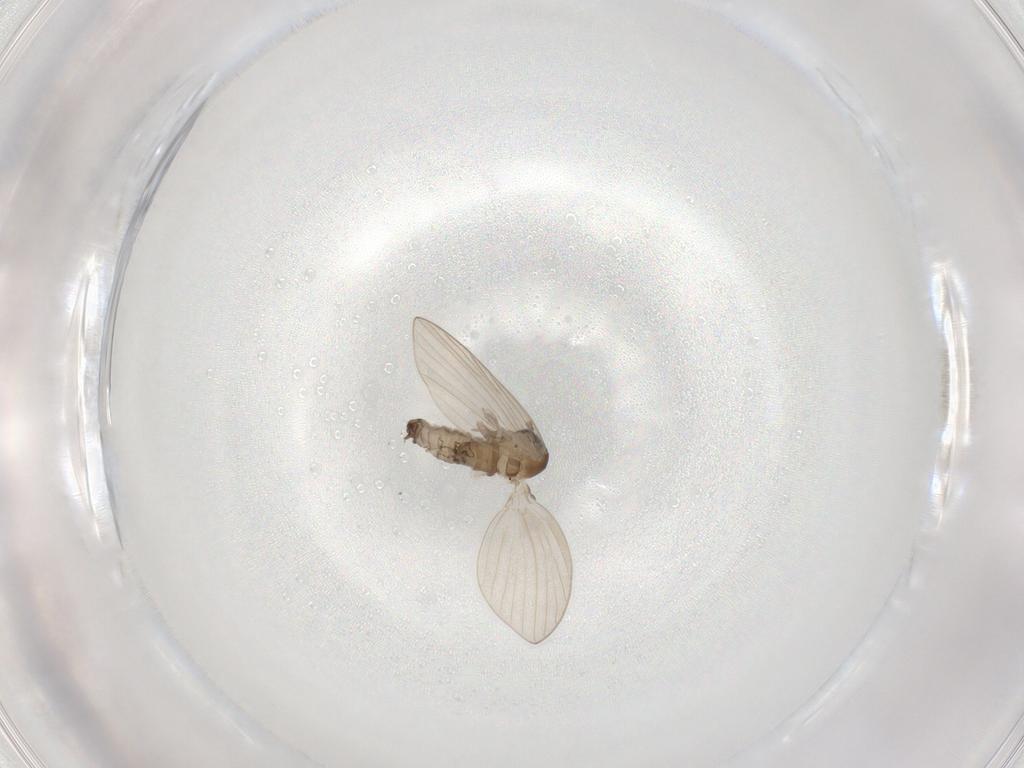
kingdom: Animalia
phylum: Arthropoda
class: Insecta
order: Diptera
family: Psychodidae
